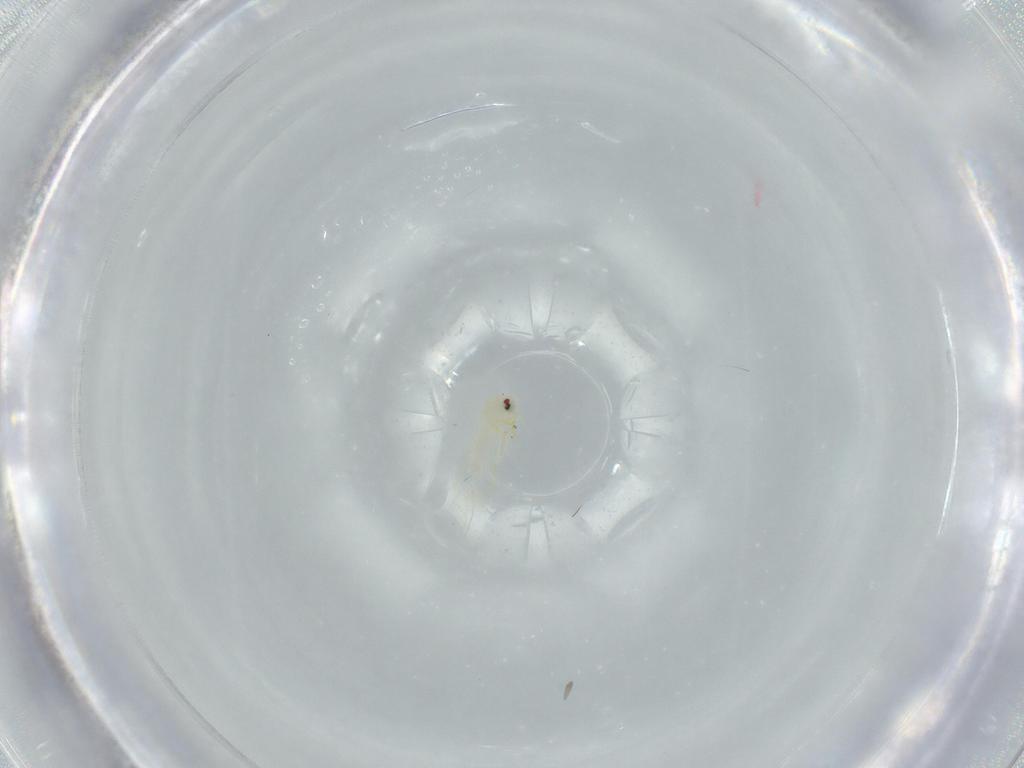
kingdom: Animalia
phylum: Arthropoda
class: Insecta
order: Hemiptera
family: Aleyrodidae
